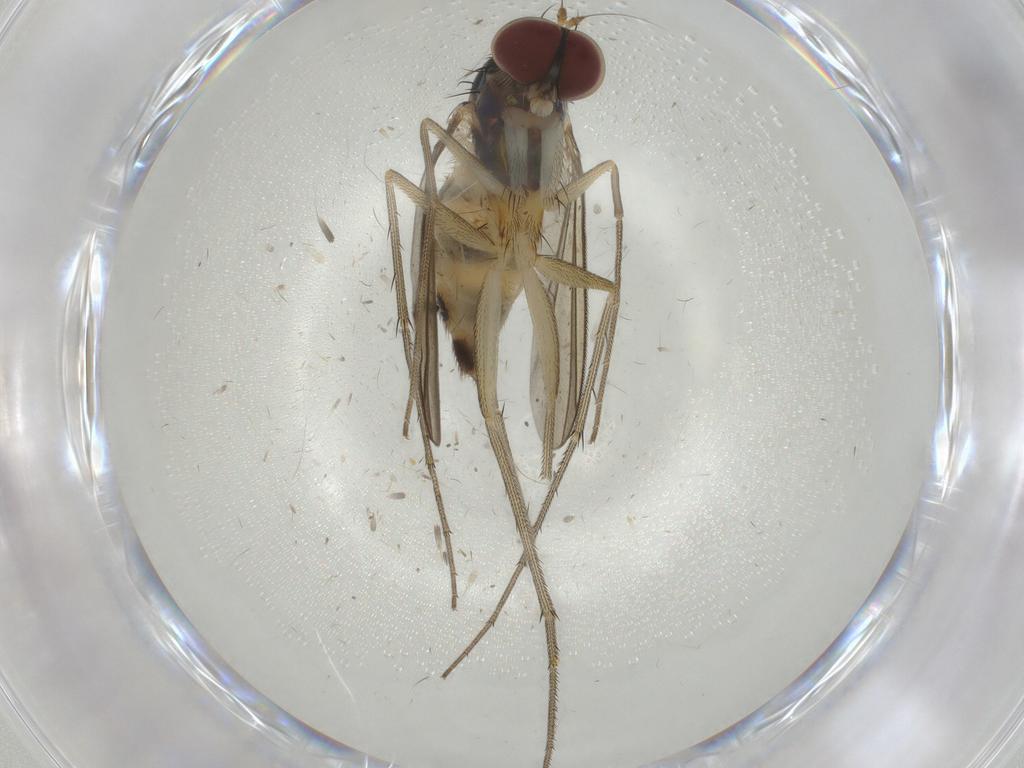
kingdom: Animalia
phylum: Arthropoda
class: Insecta
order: Diptera
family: Dolichopodidae
